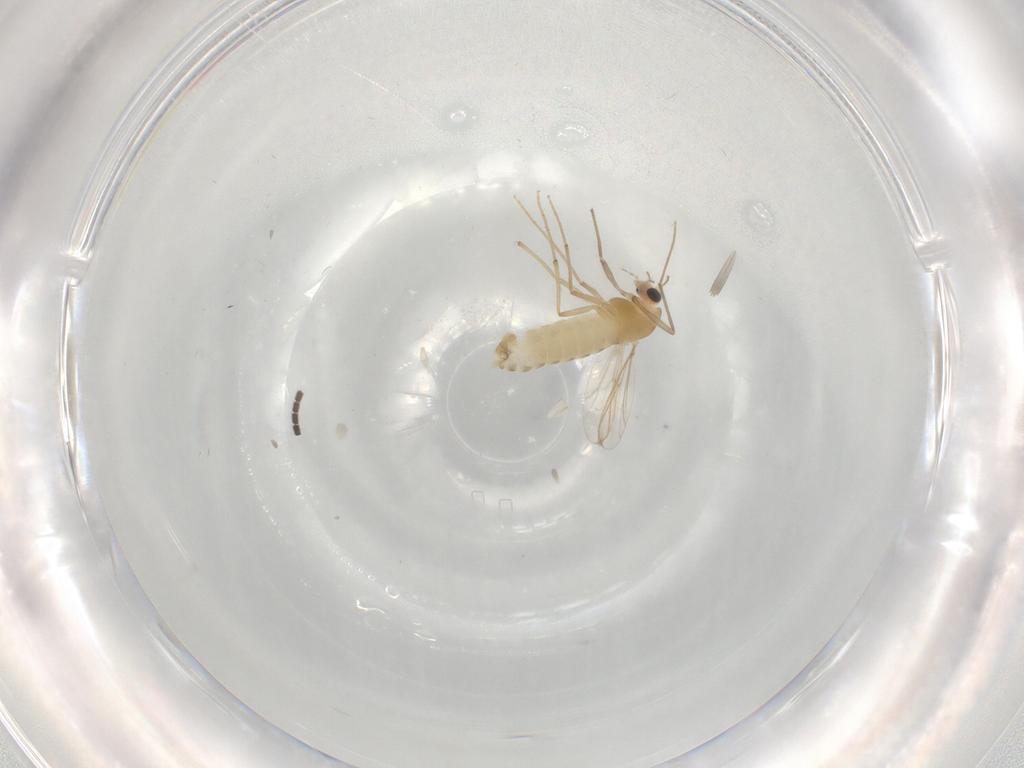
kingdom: Animalia
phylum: Arthropoda
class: Insecta
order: Diptera
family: Chironomidae
